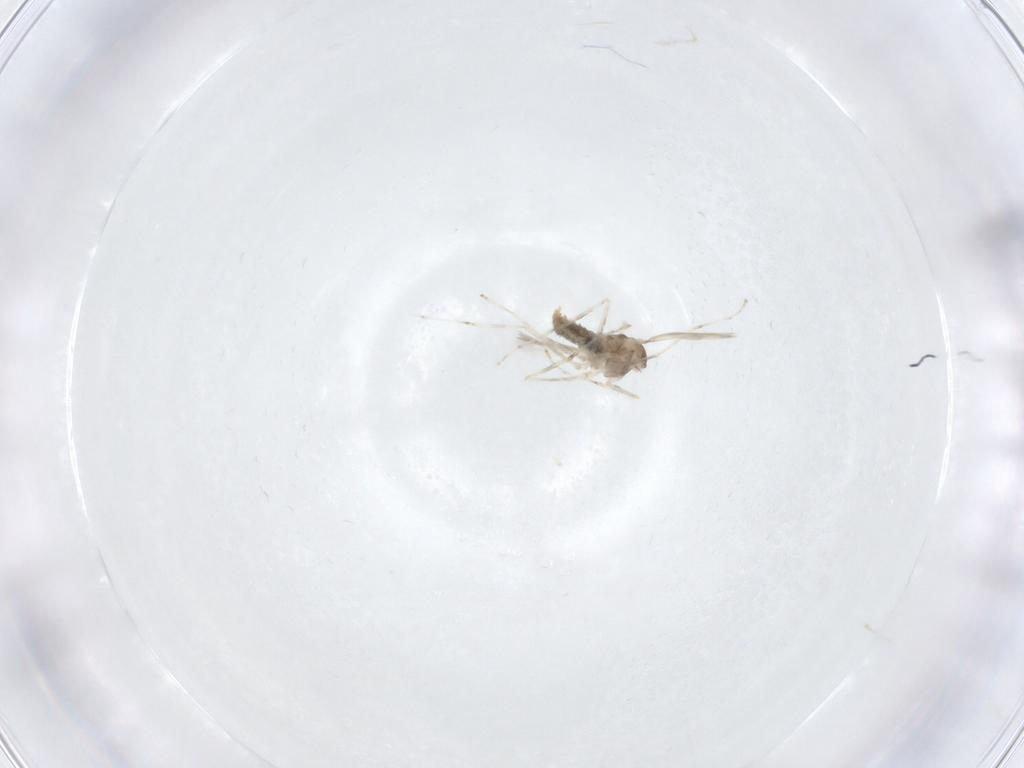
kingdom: Animalia
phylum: Arthropoda
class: Insecta
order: Diptera
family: Cecidomyiidae
